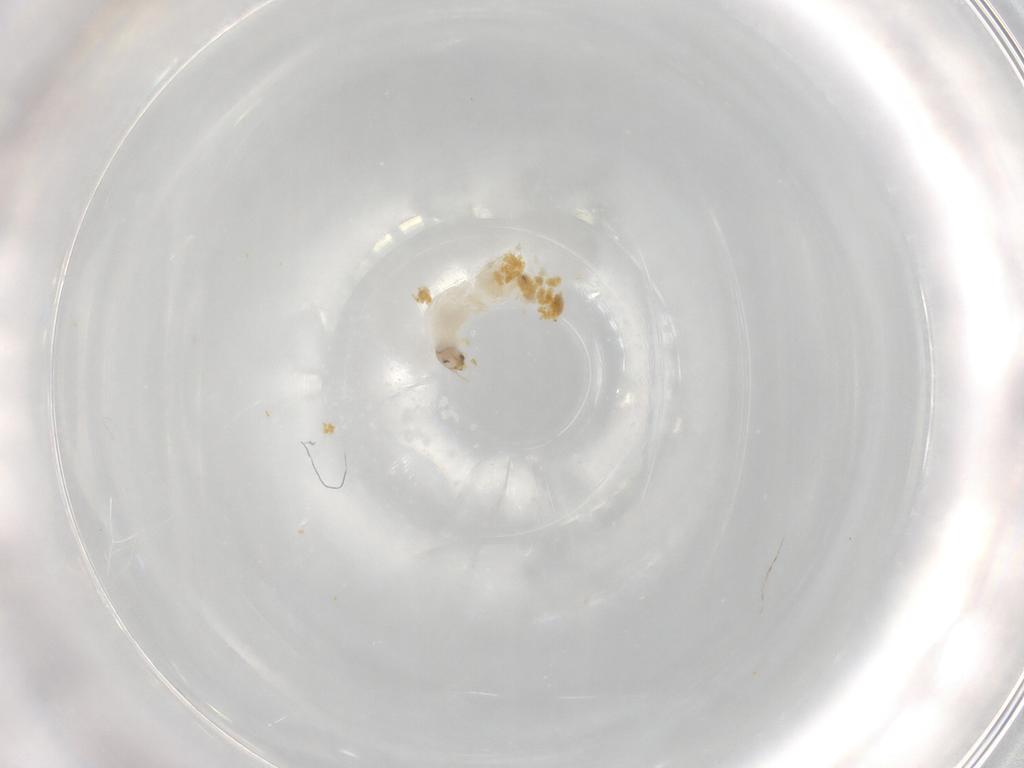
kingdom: Animalia
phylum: Arthropoda
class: Insecta
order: Diptera
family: Chironomidae
